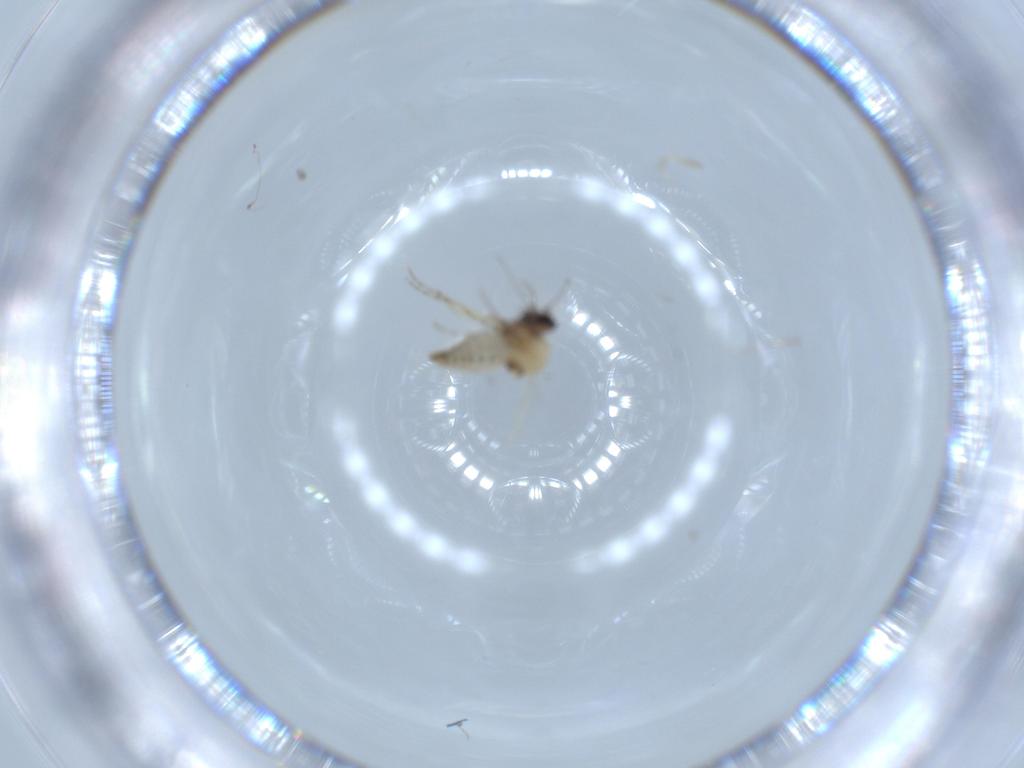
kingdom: Animalia
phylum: Arthropoda
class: Insecta
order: Diptera
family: Ceratopogonidae
